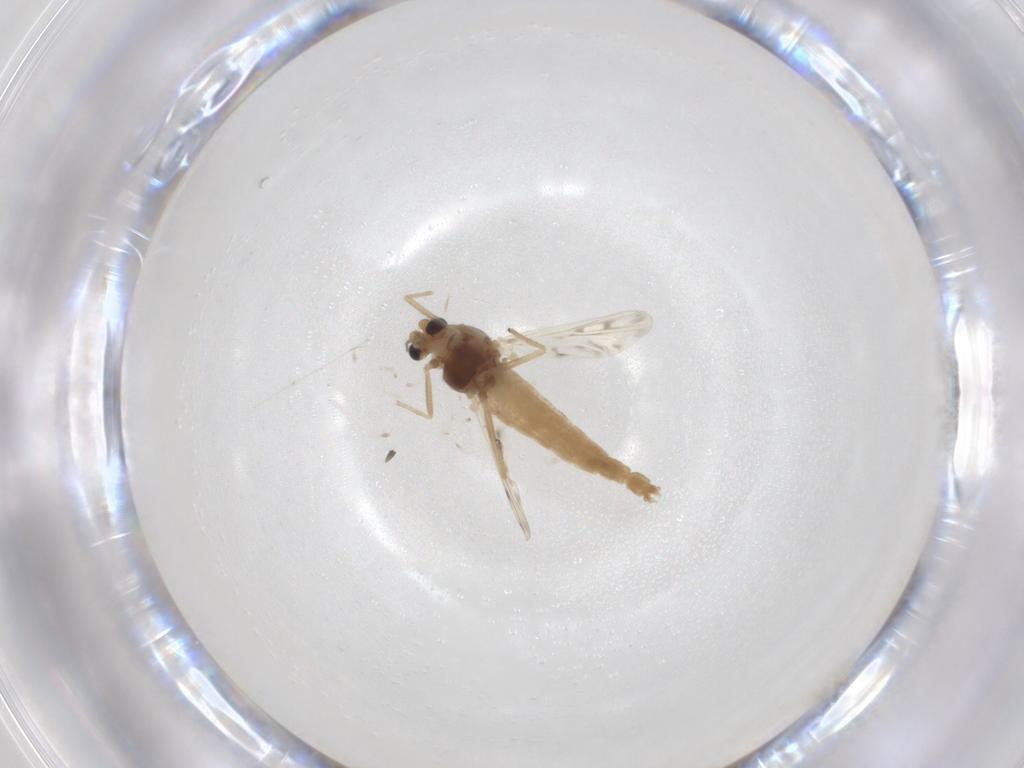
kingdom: Animalia
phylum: Arthropoda
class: Insecta
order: Diptera
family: Chironomidae
